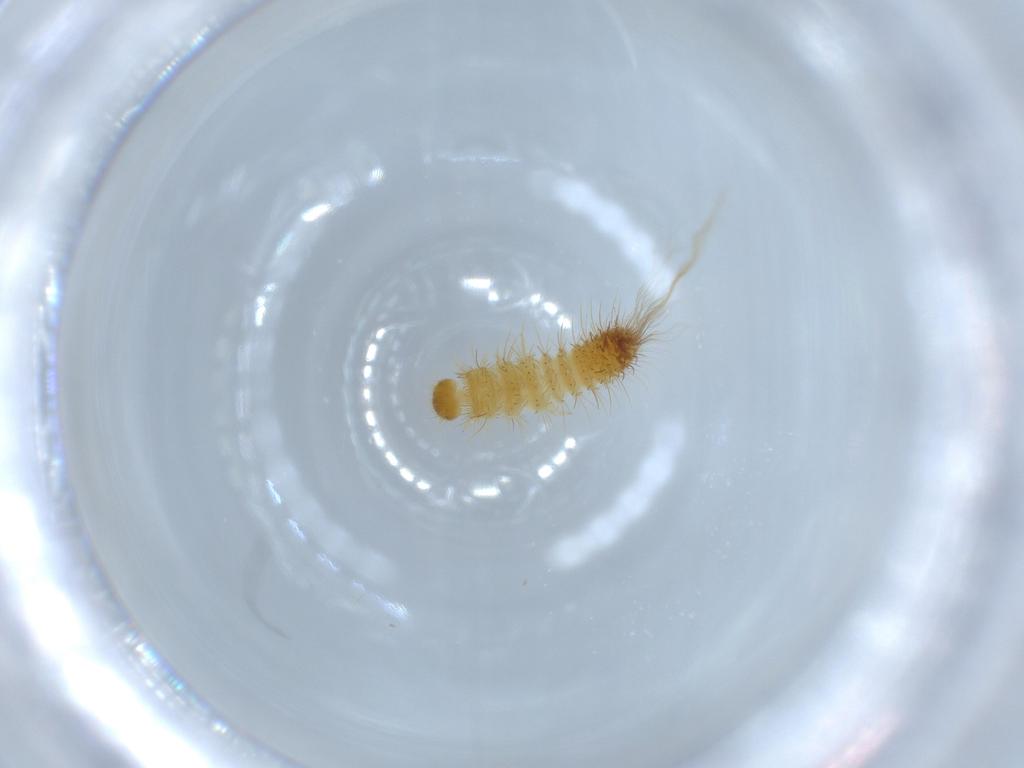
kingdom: Animalia
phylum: Arthropoda
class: Insecta
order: Coleoptera
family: Dermestidae
